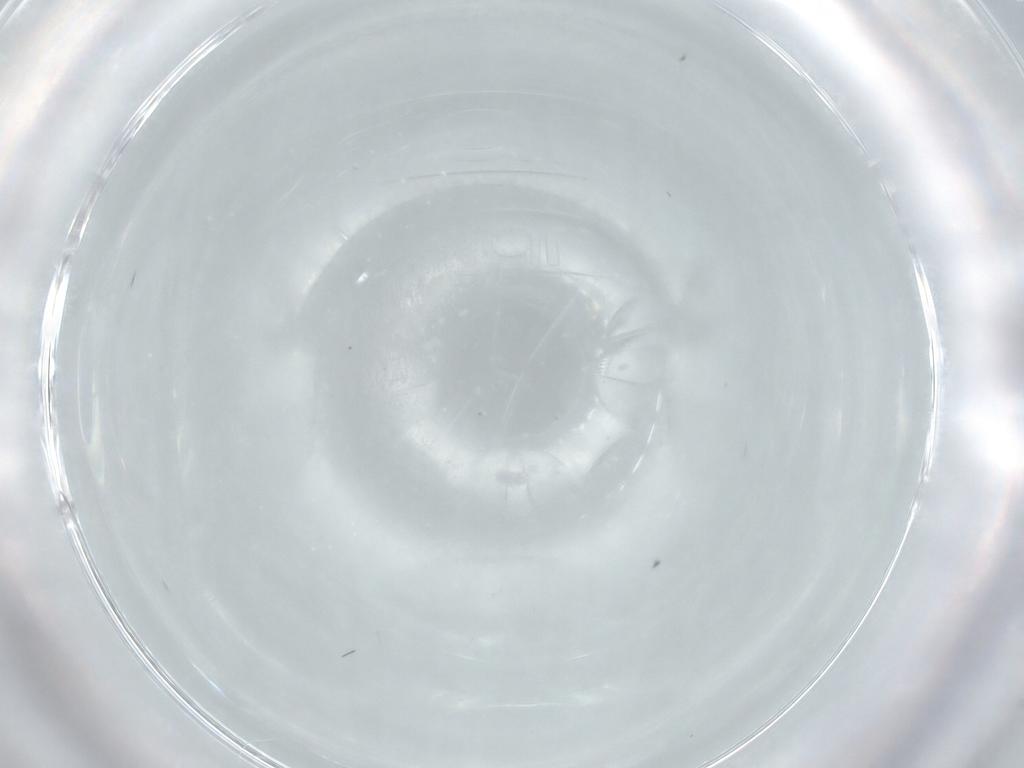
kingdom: Animalia
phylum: Arthropoda
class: Insecta
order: Diptera
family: Cecidomyiidae
